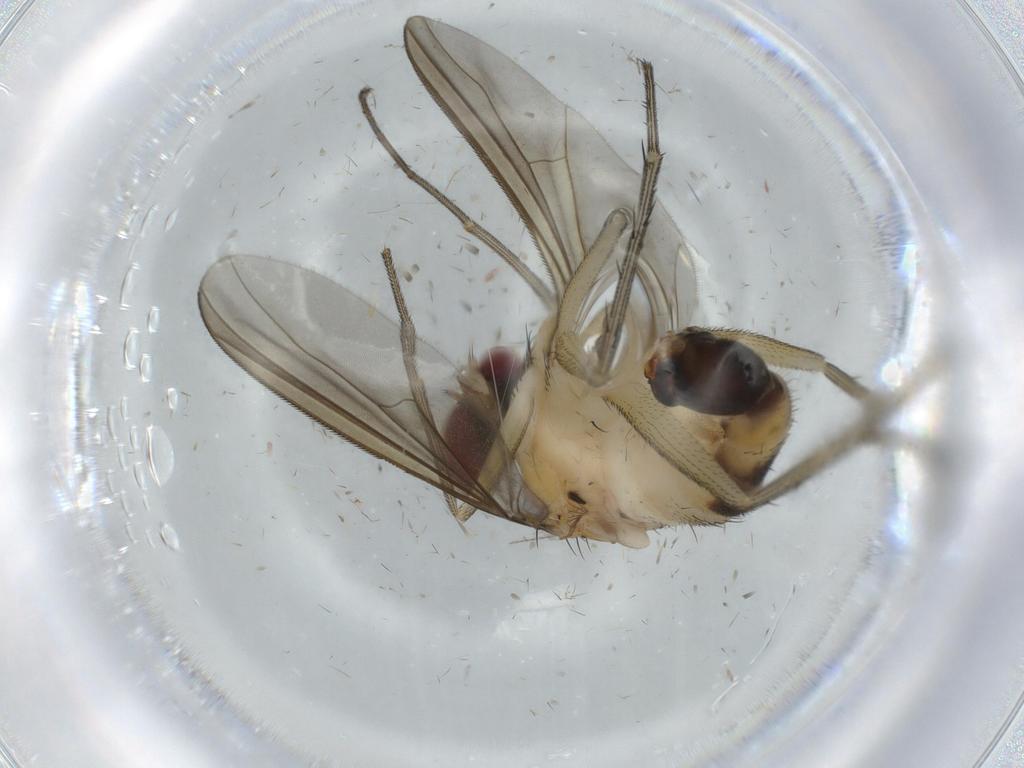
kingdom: Animalia
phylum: Arthropoda
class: Insecta
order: Diptera
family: Dolichopodidae
